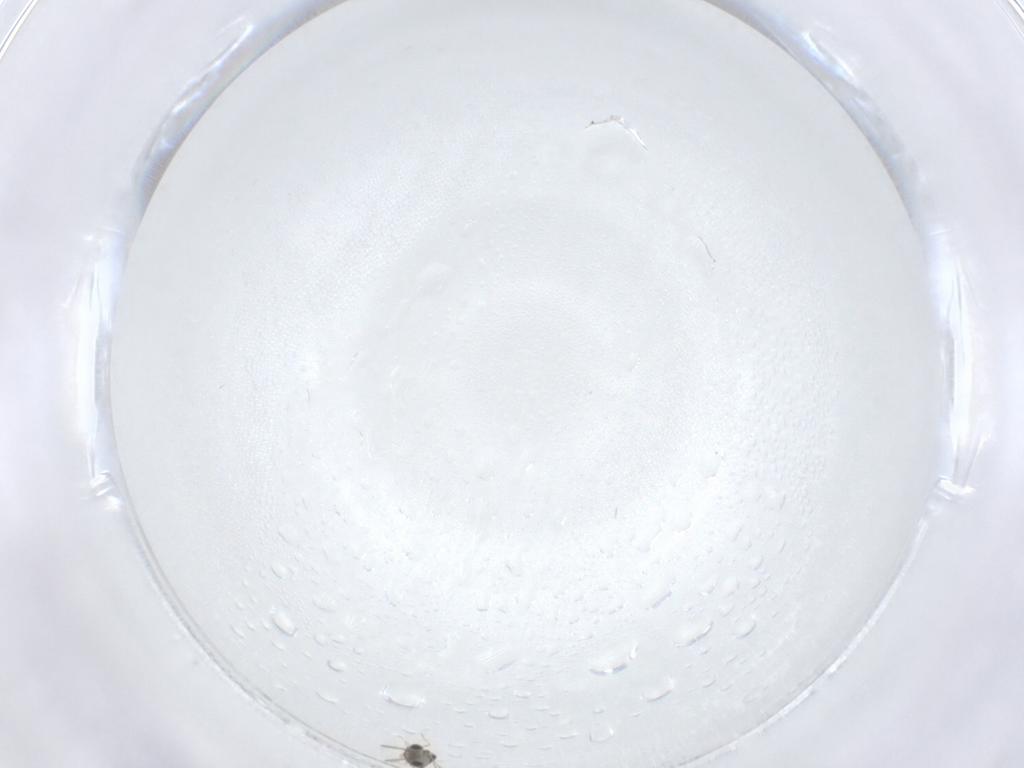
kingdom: Animalia
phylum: Arthropoda
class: Insecta
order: Hymenoptera
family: Aphelinidae
